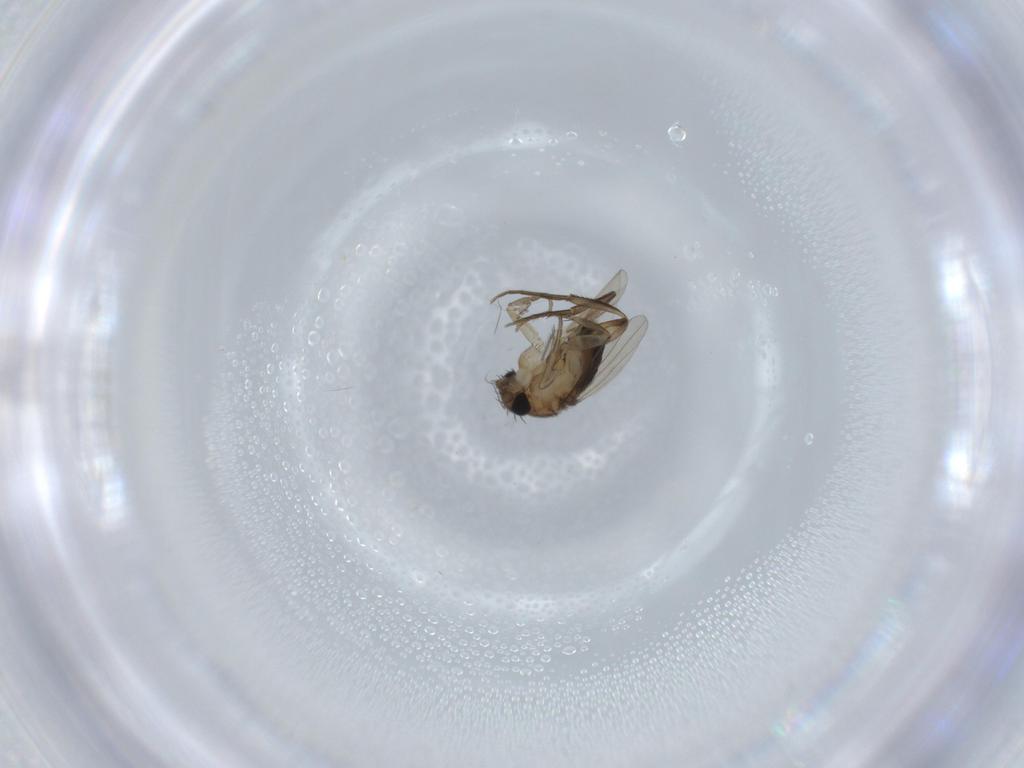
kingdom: Animalia
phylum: Arthropoda
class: Insecta
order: Diptera
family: Phoridae
